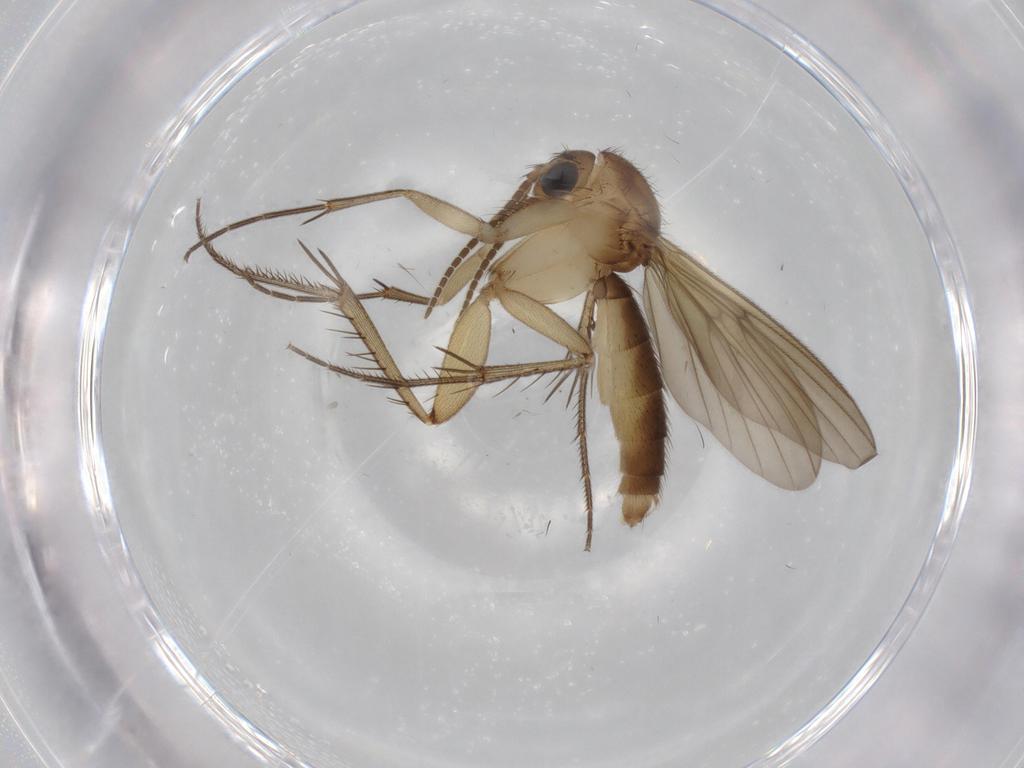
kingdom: Animalia
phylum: Arthropoda
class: Insecta
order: Diptera
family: Mycetophilidae
